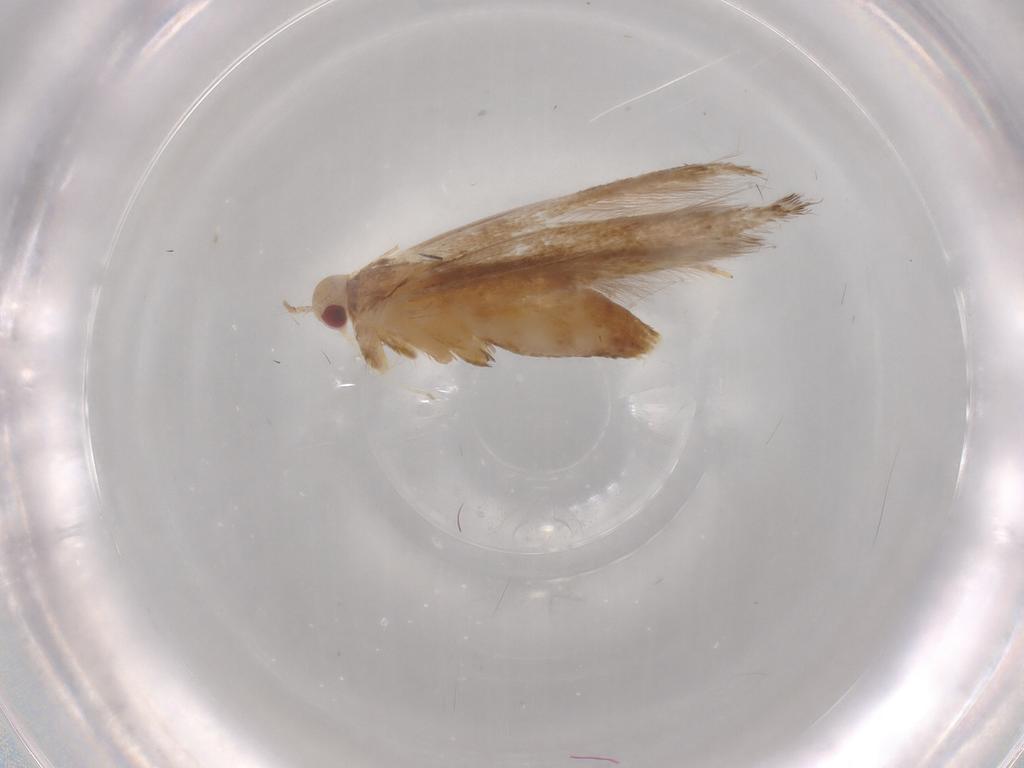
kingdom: Animalia
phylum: Arthropoda
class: Insecta
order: Lepidoptera
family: Cosmopterigidae
